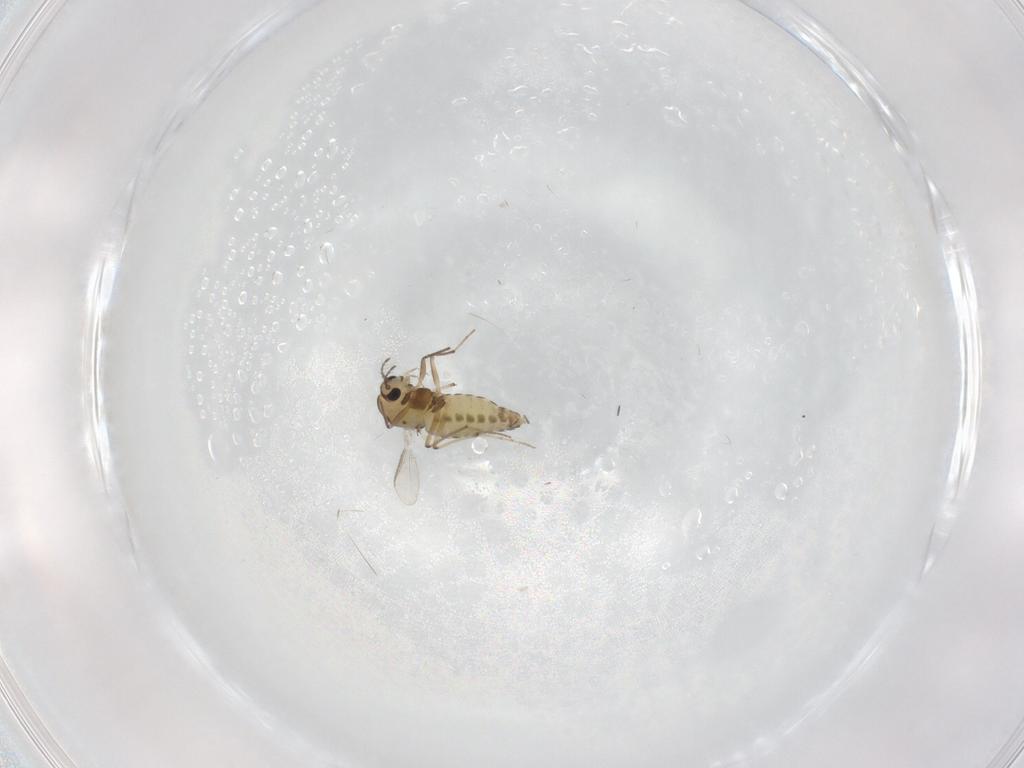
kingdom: Animalia
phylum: Arthropoda
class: Insecta
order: Diptera
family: Chironomidae
